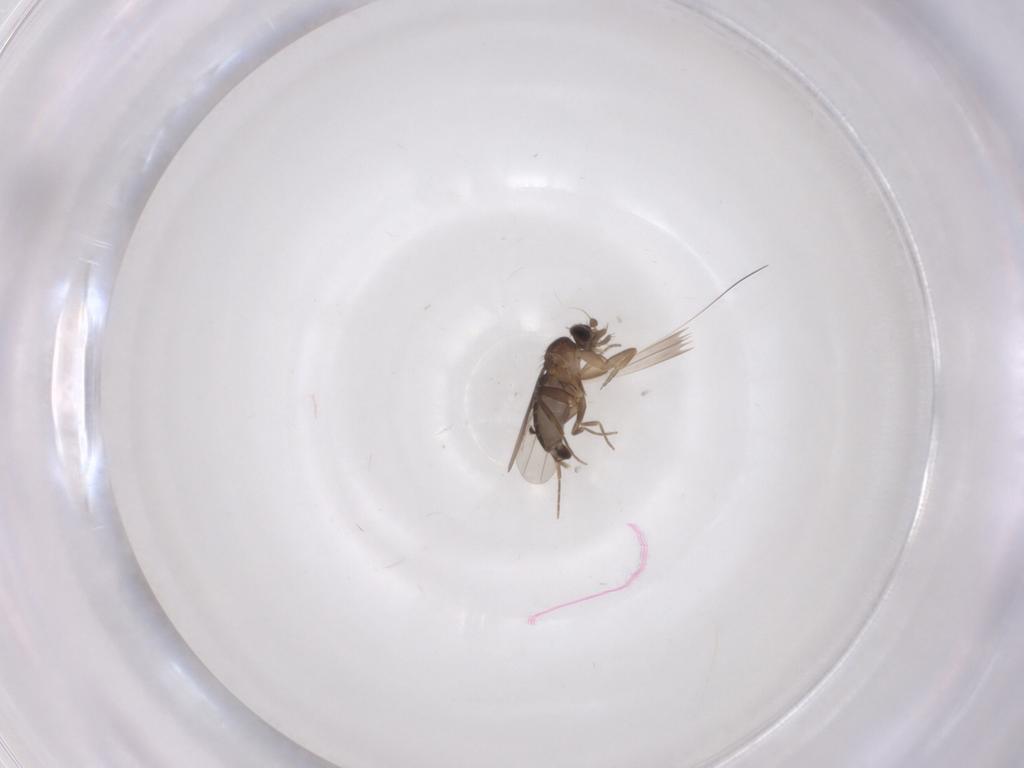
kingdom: Animalia
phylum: Arthropoda
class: Insecta
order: Diptera
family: Phoridae
